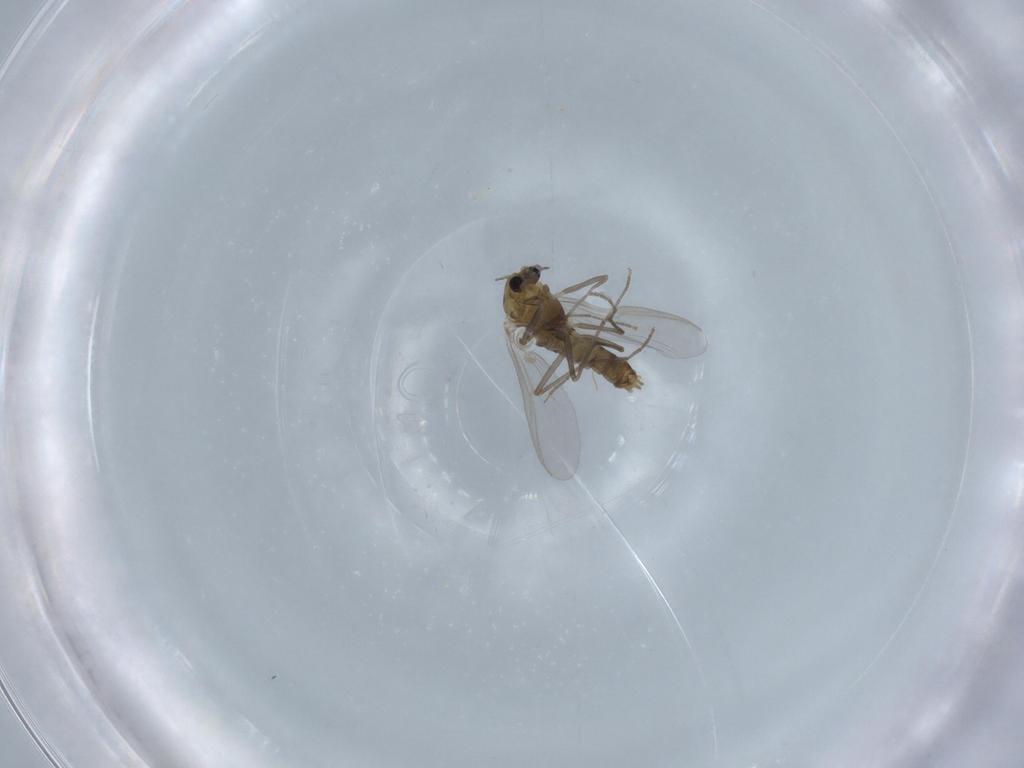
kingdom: Animalia
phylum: Arthropoda
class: Insecta
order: Diptera
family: Chironomidae
